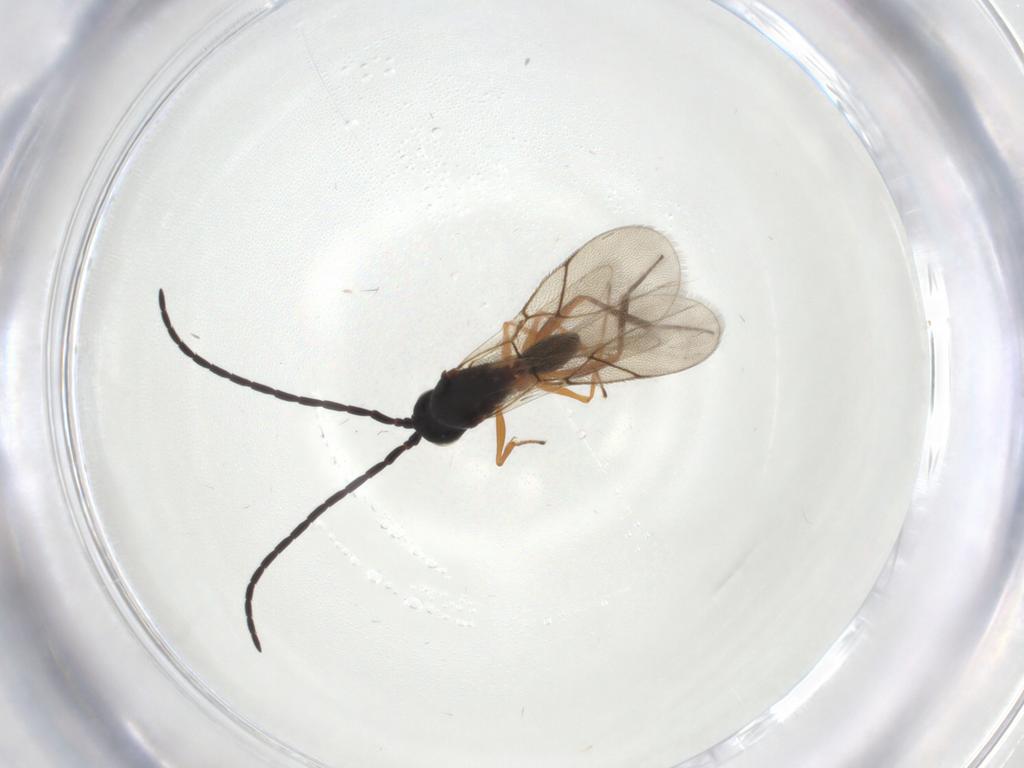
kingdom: Animalia
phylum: Arthropoda
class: Insecta
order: Hymenoptera
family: Figitidae
